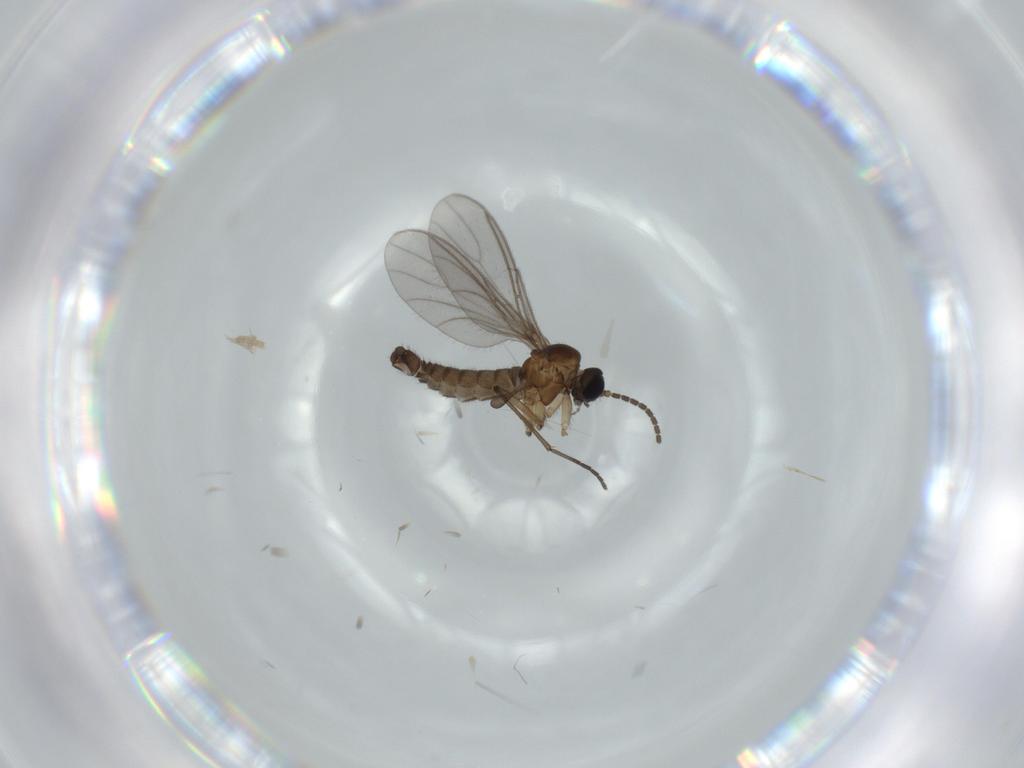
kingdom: Animalia
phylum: Arthropoda
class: Insecta
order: Diptera
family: Sciaridae
